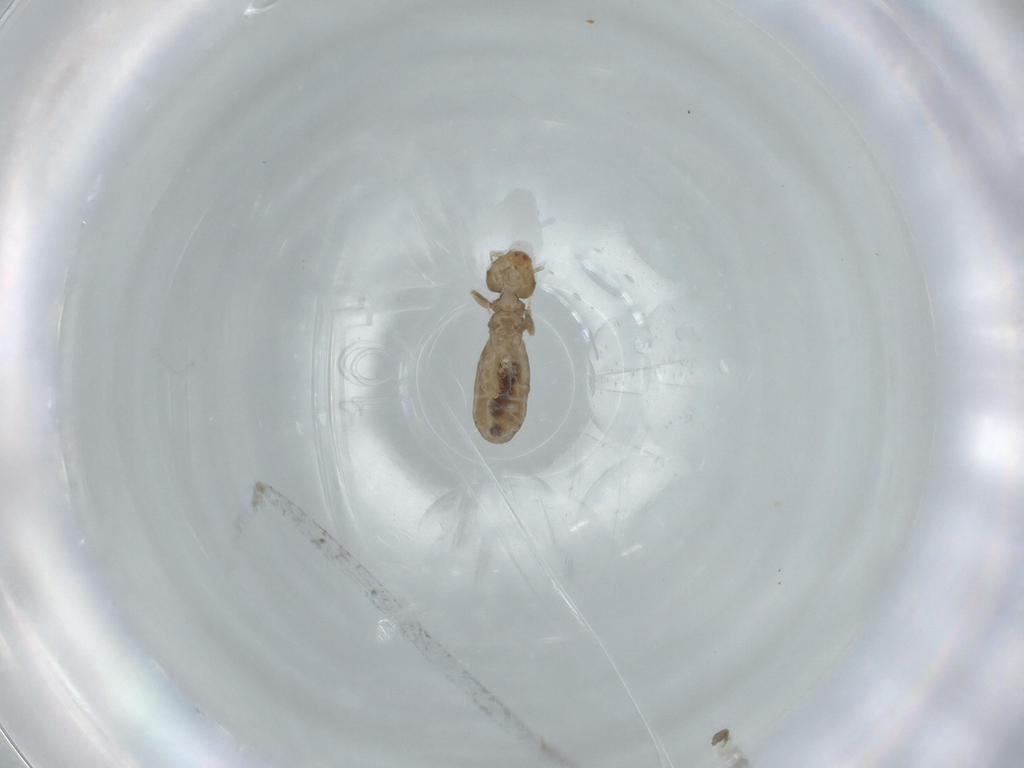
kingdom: Animalia
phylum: Arthropoda
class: Insecta
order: Psocodea
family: Liposcelididae
